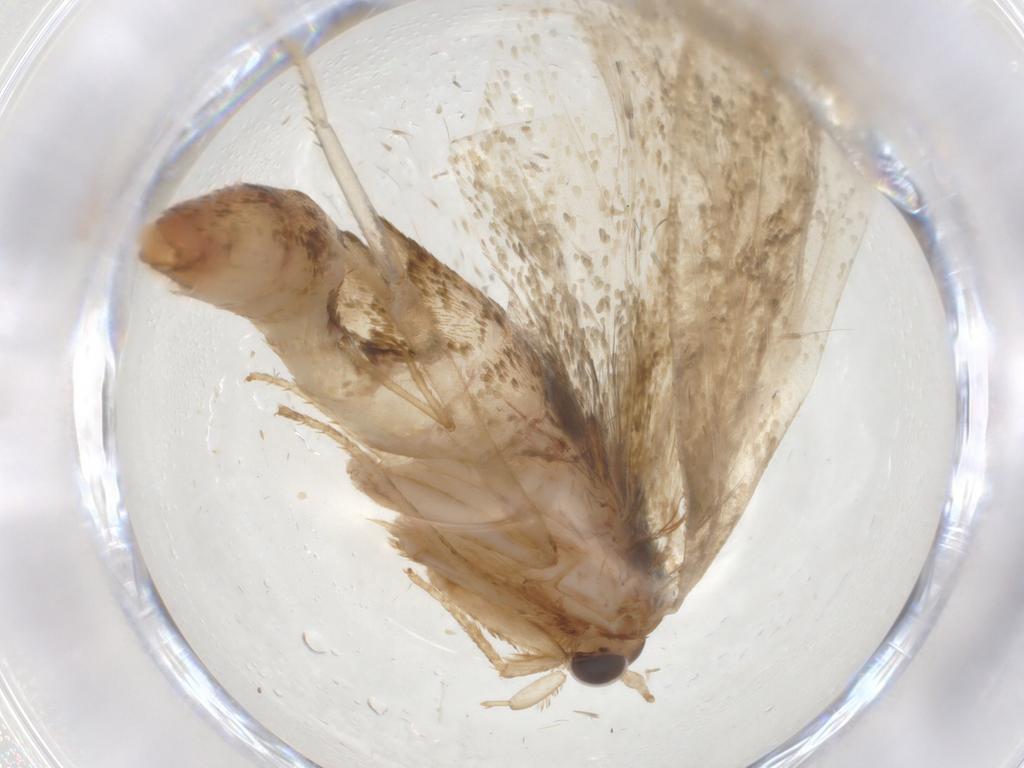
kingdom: Animalia
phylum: Arthropoda
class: Insecta
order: Lepidoptera
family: Geometridae
